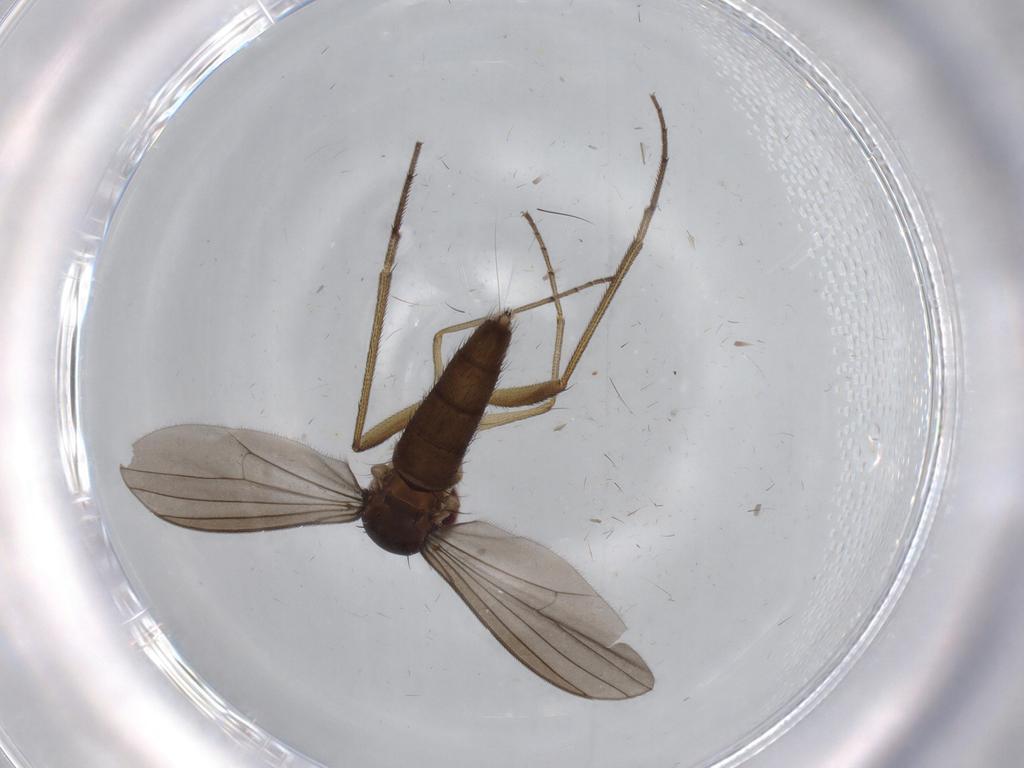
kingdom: Animalia
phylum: Arthropoda
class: Insecta
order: Diptera
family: Dolichopodidae
